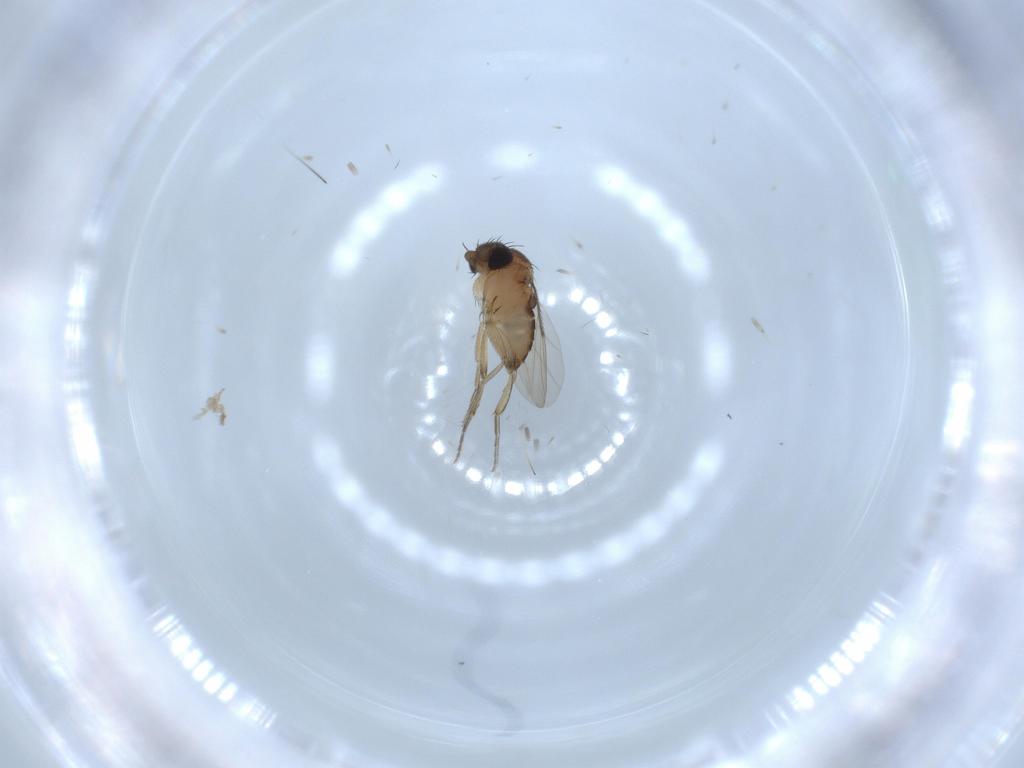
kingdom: Animalia
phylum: Arthropoda
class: Insecta
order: Diptera
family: Phoridae
